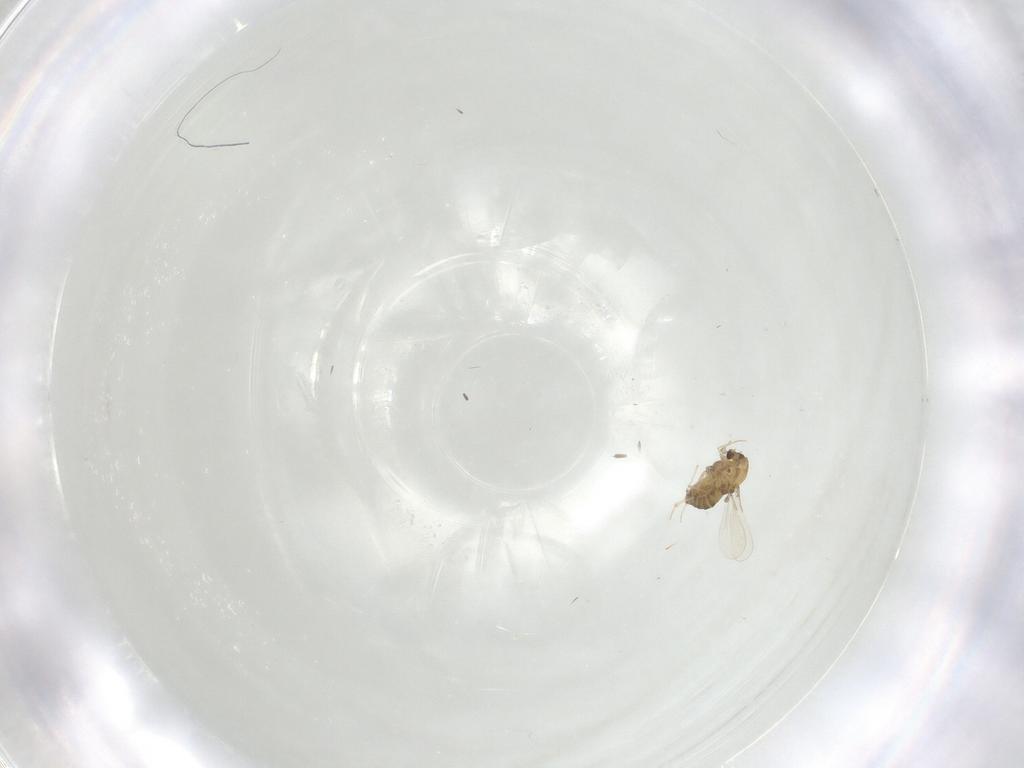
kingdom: Animalia
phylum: Arthropoda
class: Insecta
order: Diptera
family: Chironomidae
